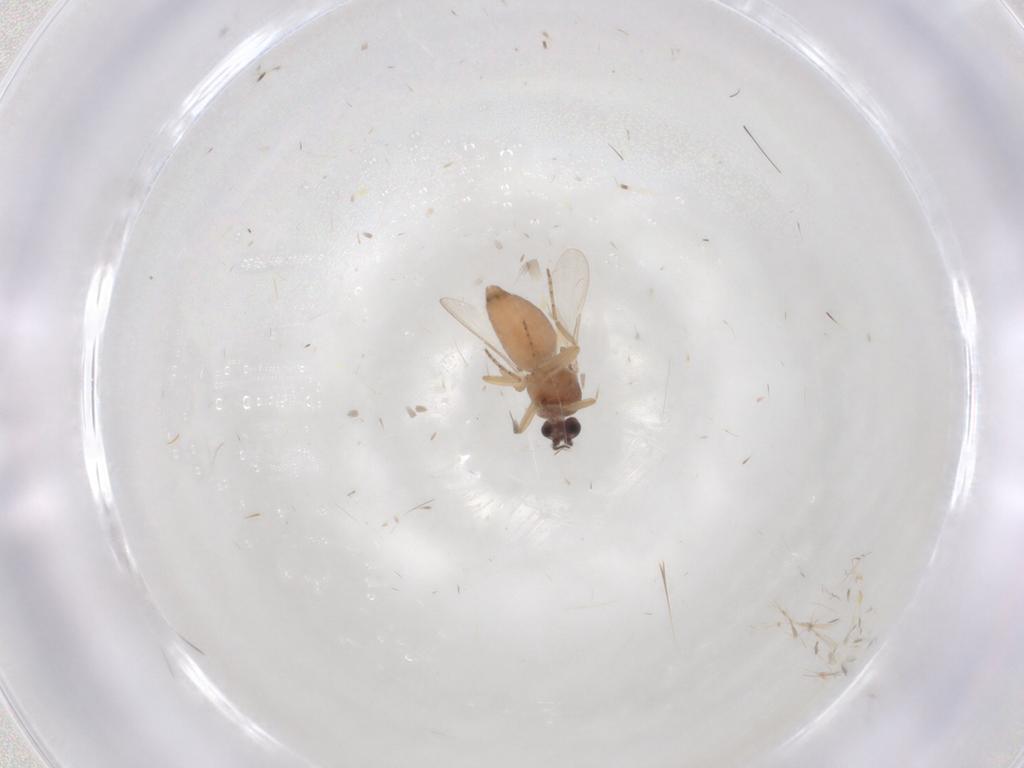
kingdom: Animalia
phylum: Arthropoda
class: Insecta
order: Diptera
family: Ceratopogonidae
